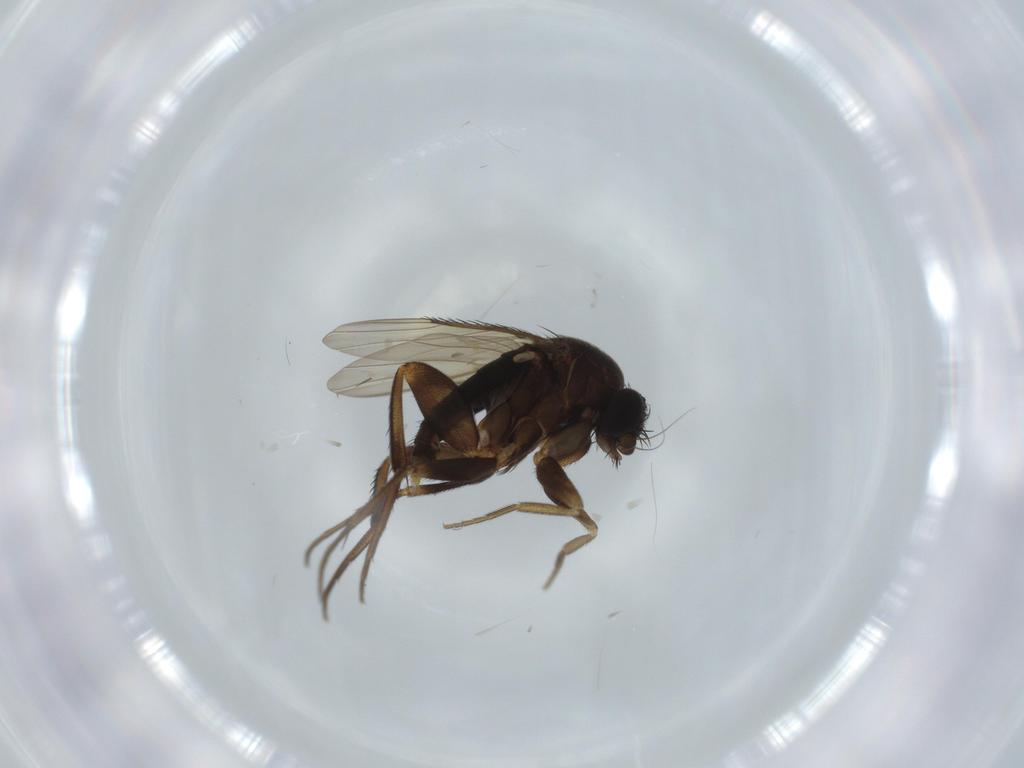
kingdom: Animalia
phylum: Arthropoda
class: Insecta
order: Diptera
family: Phoridae
